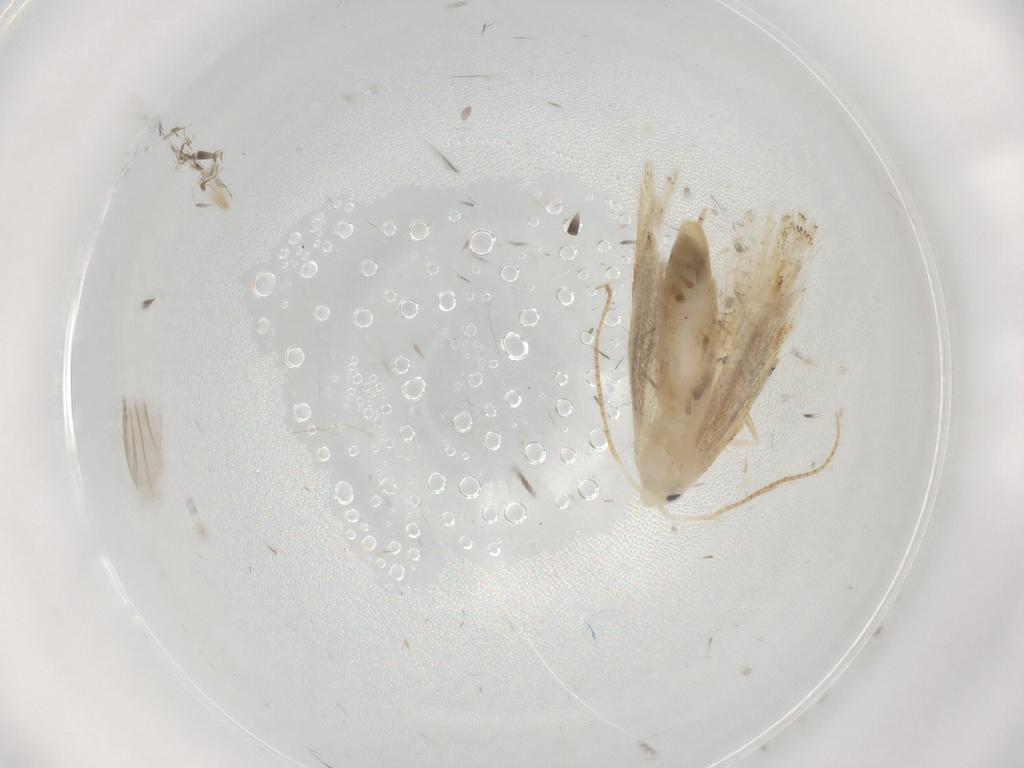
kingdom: Animalia
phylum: Arthropoda
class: Insecta
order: Lepidoptera
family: Bucculatricidae
